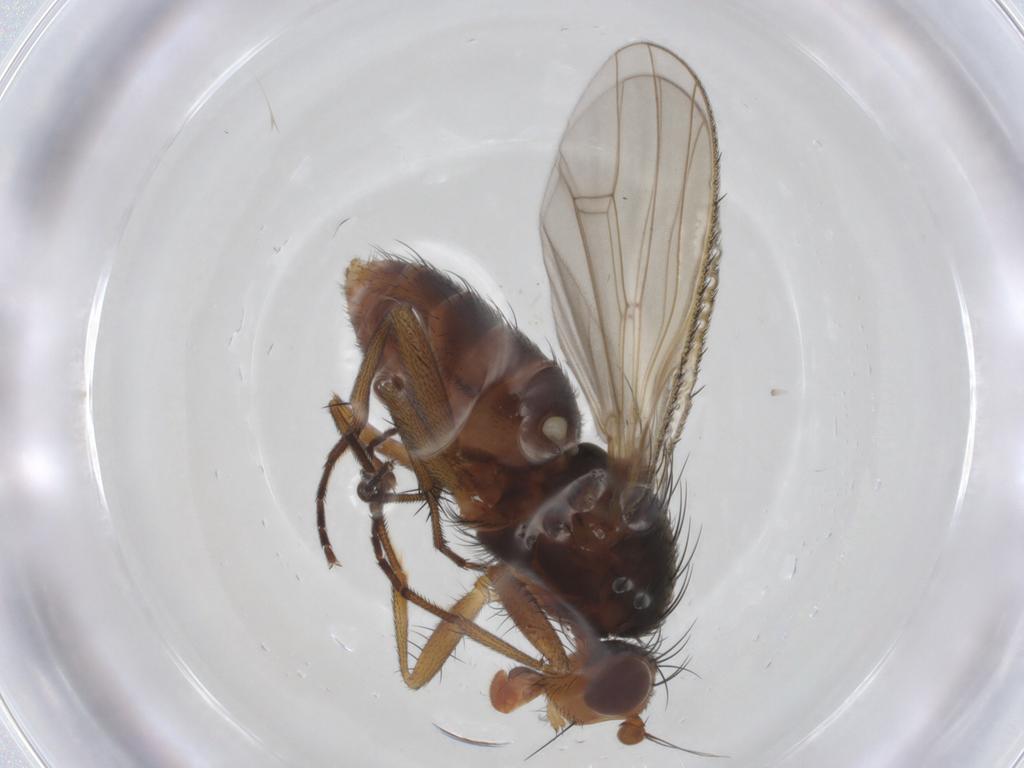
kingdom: Animalia
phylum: Arthropoda
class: Insecta
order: Diptera
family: Heleomyzidae
